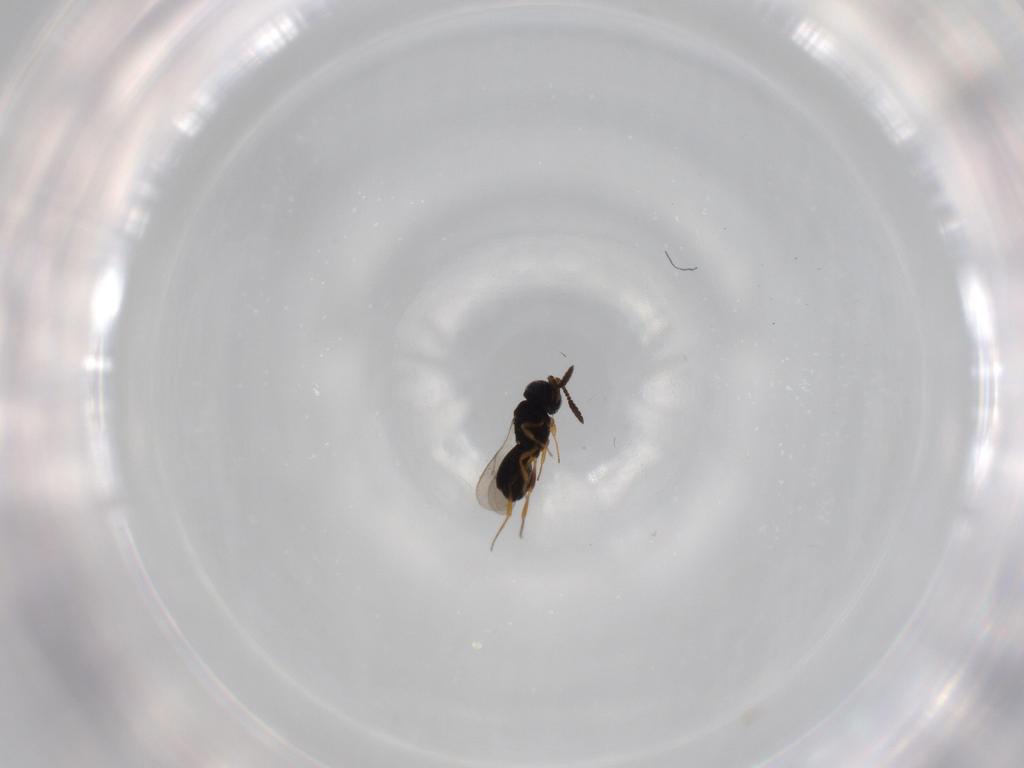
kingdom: Animalia
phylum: Arthropoda
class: Insecta
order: Hymenoptera
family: Scelionidae
